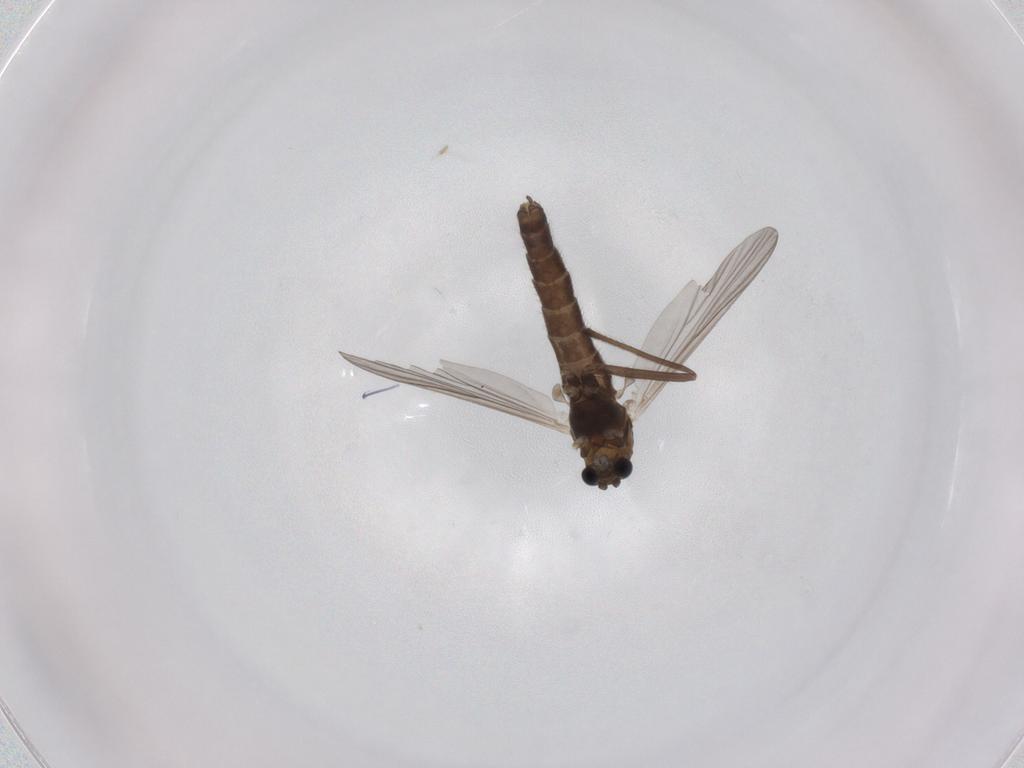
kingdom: Animalia
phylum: Arthropoda
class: Insecta
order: Diptera
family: Chironomidae
